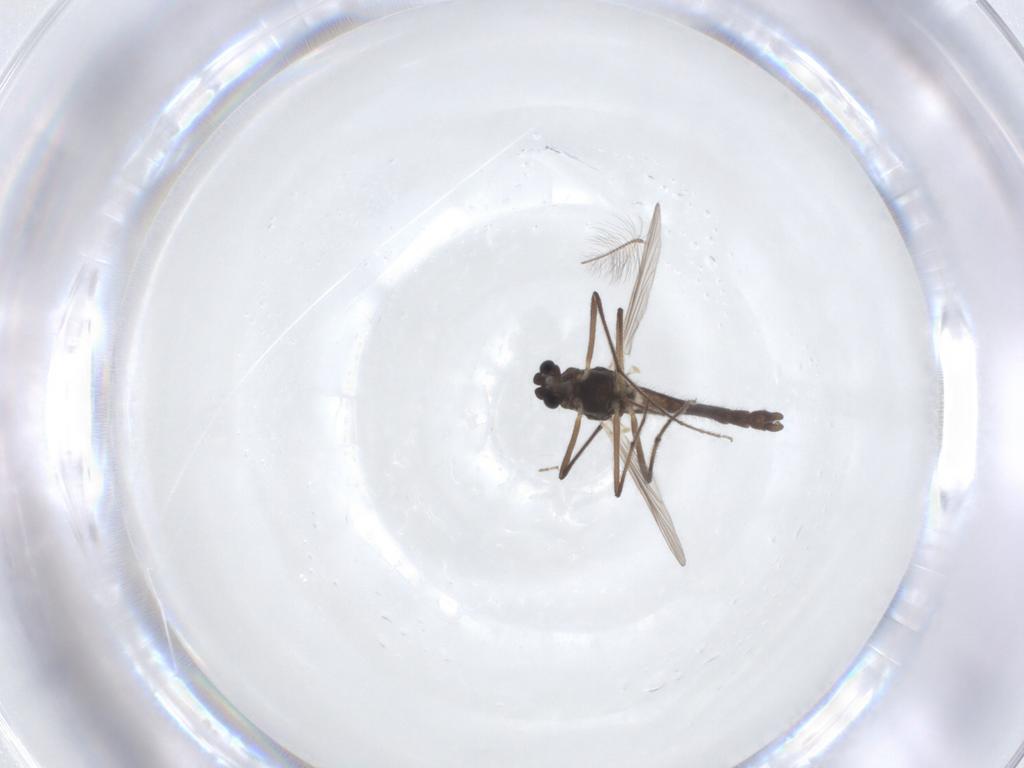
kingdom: Animalia
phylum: Arthropoda
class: Insecta
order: Diptera
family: Chironomidae
